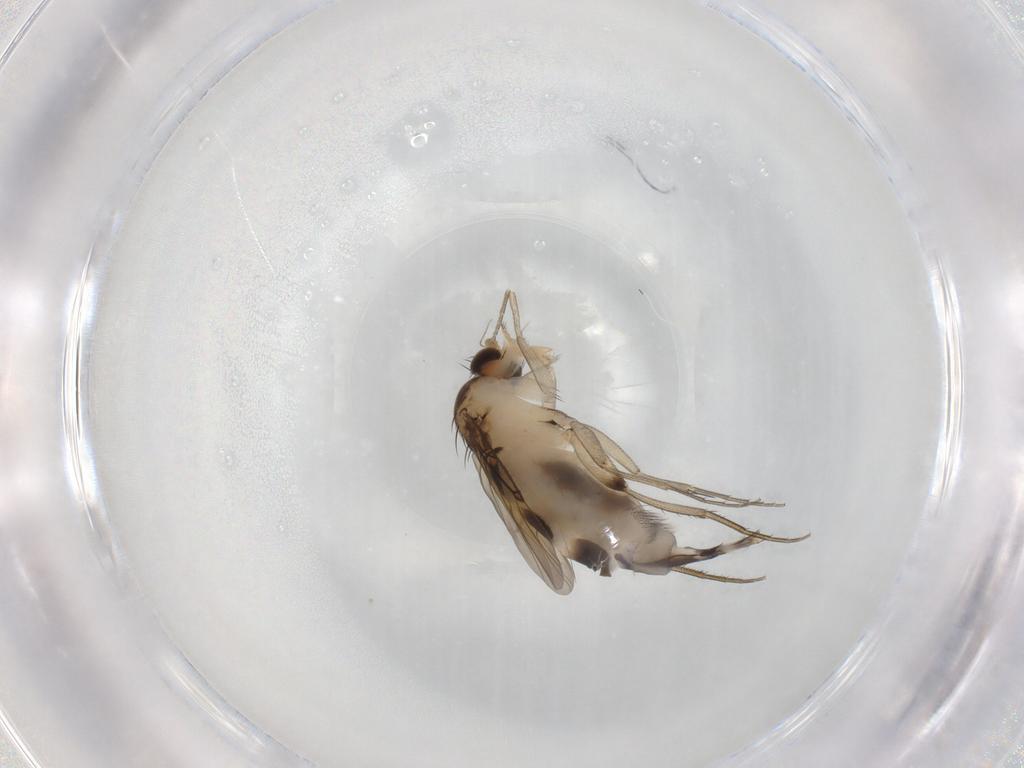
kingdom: Animalia
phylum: Arthropoda
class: Insecta
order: Diptera
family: Phoridae
